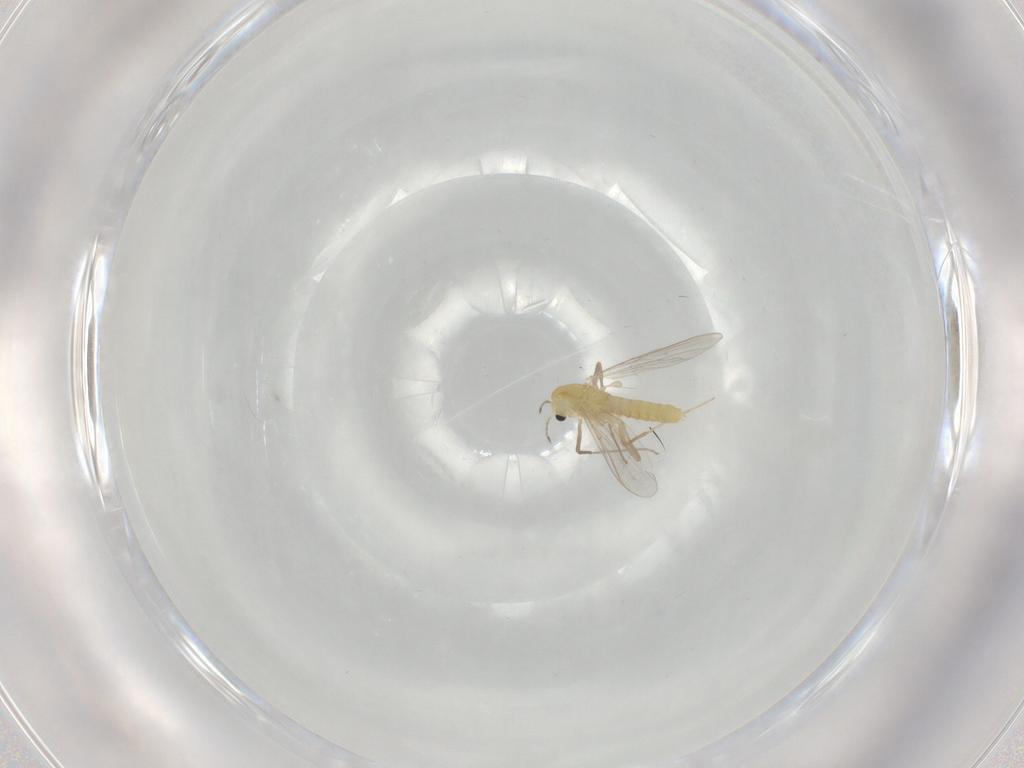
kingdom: Animalia
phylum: Arthropoda
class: Insecta
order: Diptera
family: Chironomidae
